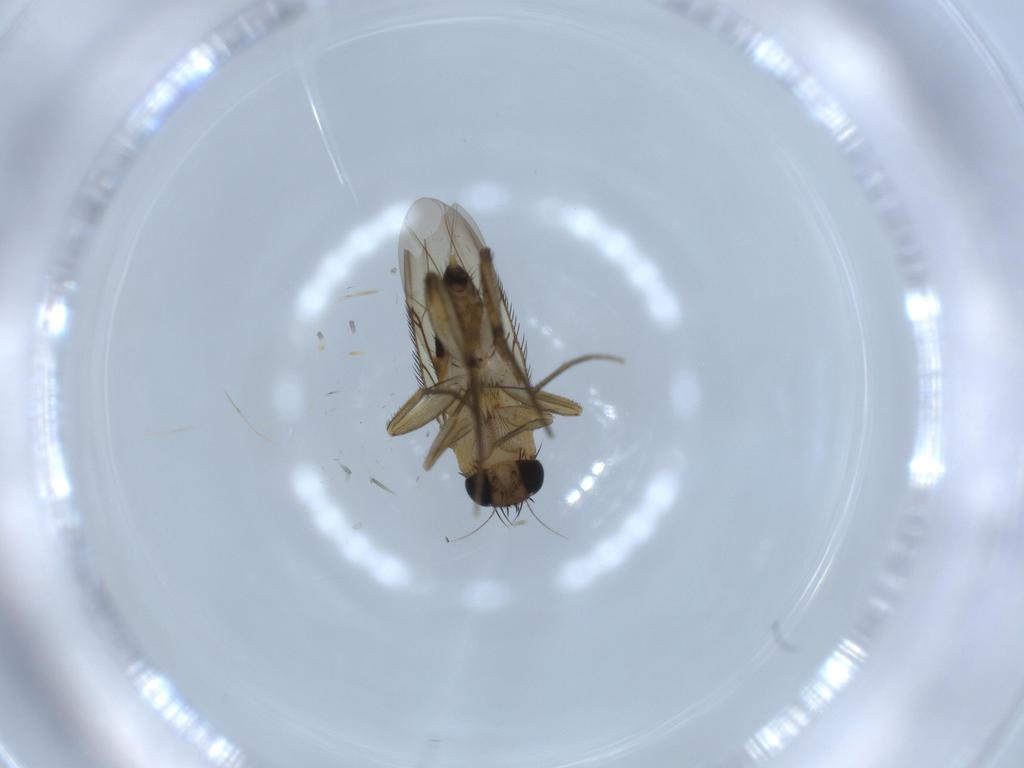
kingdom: Animalia
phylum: Arthropoda
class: Insecta
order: Diptera
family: Phoridae
